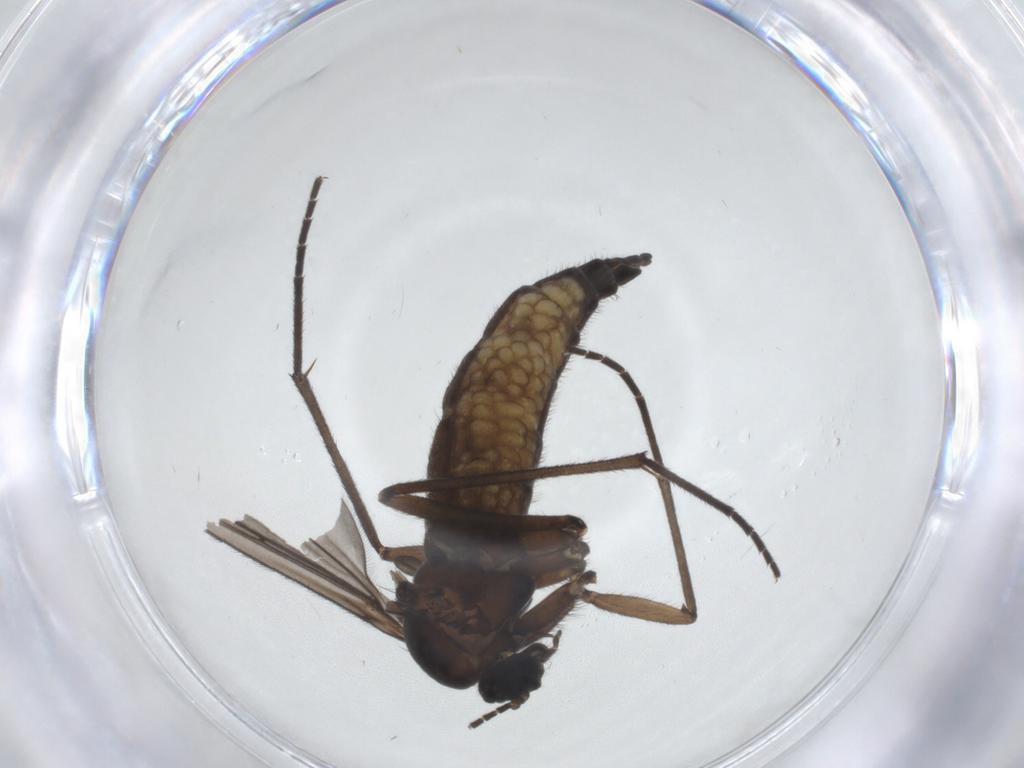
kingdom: Animalia
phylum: Arthropoda
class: Insecta
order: Diptera
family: Sciaridae
